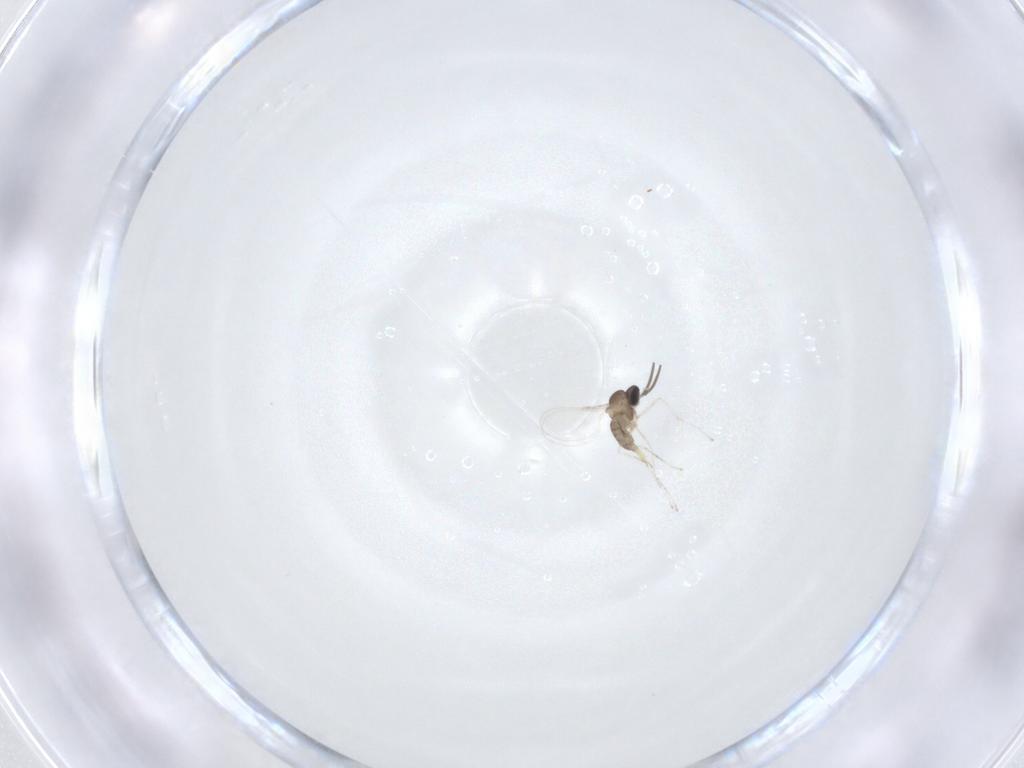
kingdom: Animalia
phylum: Arthropoda
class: Insecta
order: Diptera
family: Cecidomyiidae
